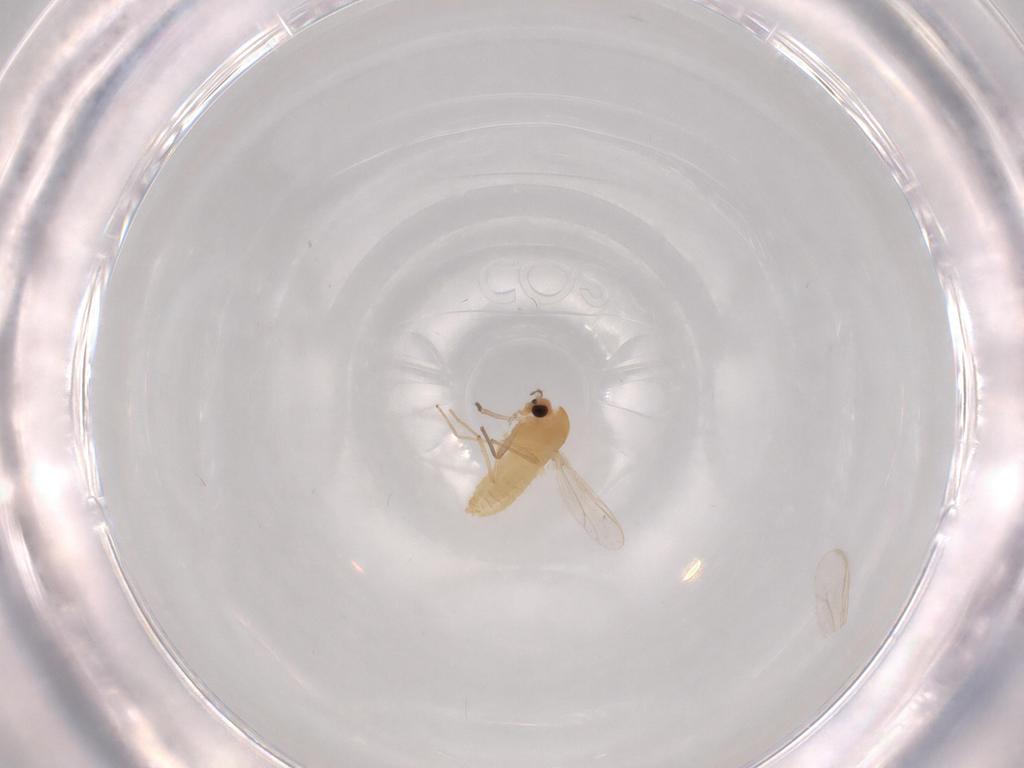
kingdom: Animalia
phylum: Arthropoda
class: Insecta
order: Diptera
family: Chironomidae
